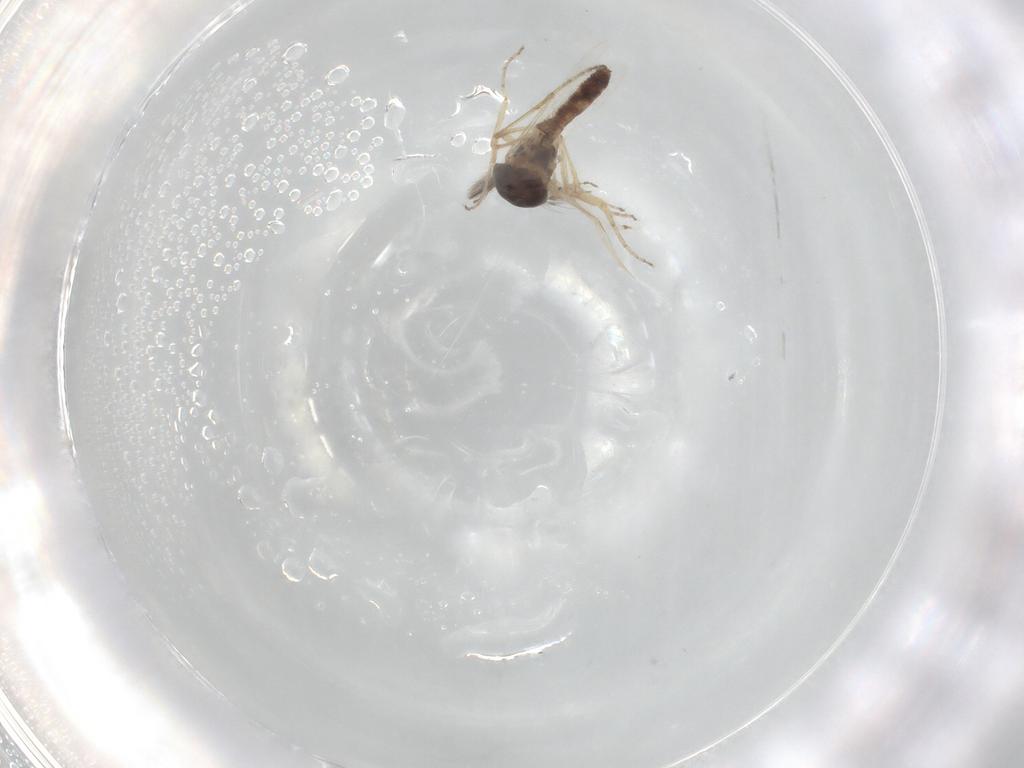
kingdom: Animalia
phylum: Arthropoda
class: Insecta
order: Diptera
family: Ceratopogonidae
